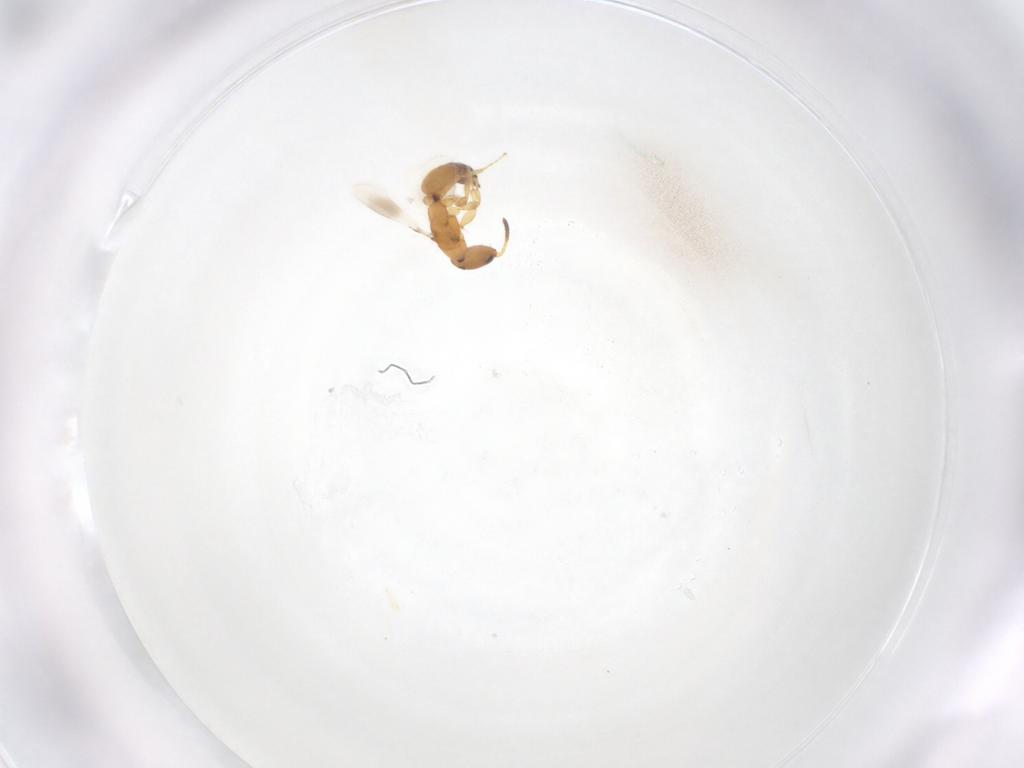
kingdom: Animalia
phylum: Arthropoda
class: Insecta
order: Hymenoptera
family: Bethylidae
